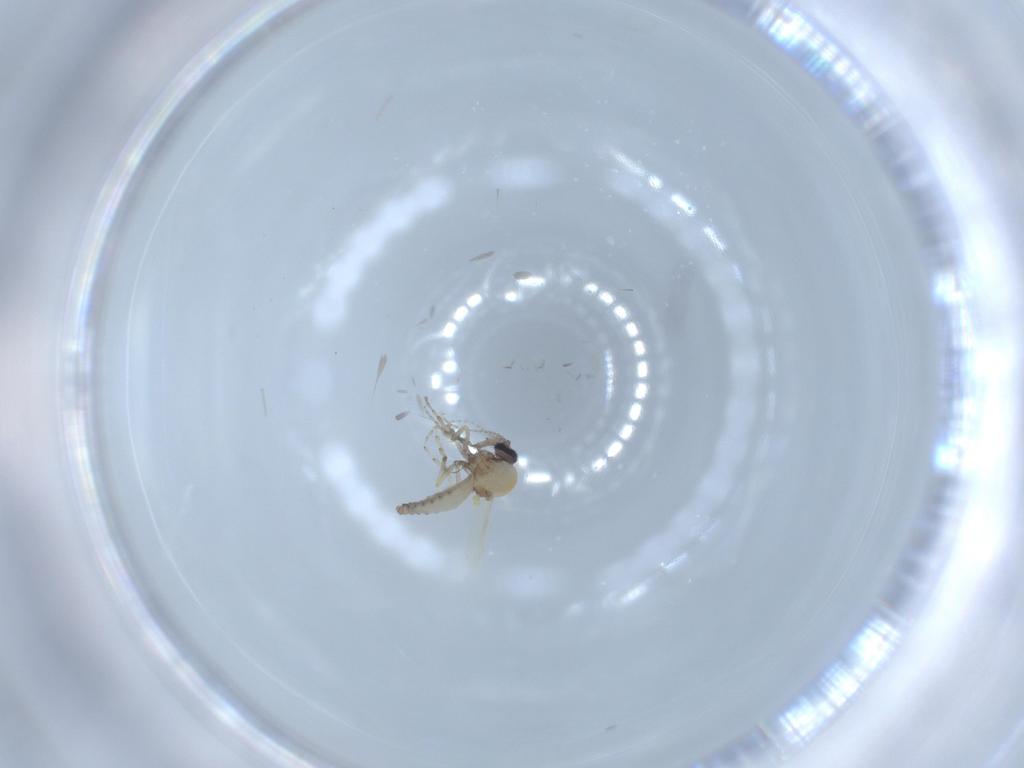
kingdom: Animalia
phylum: Arthropoda
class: Insecta
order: Diptera
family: Ceratopogonidae
